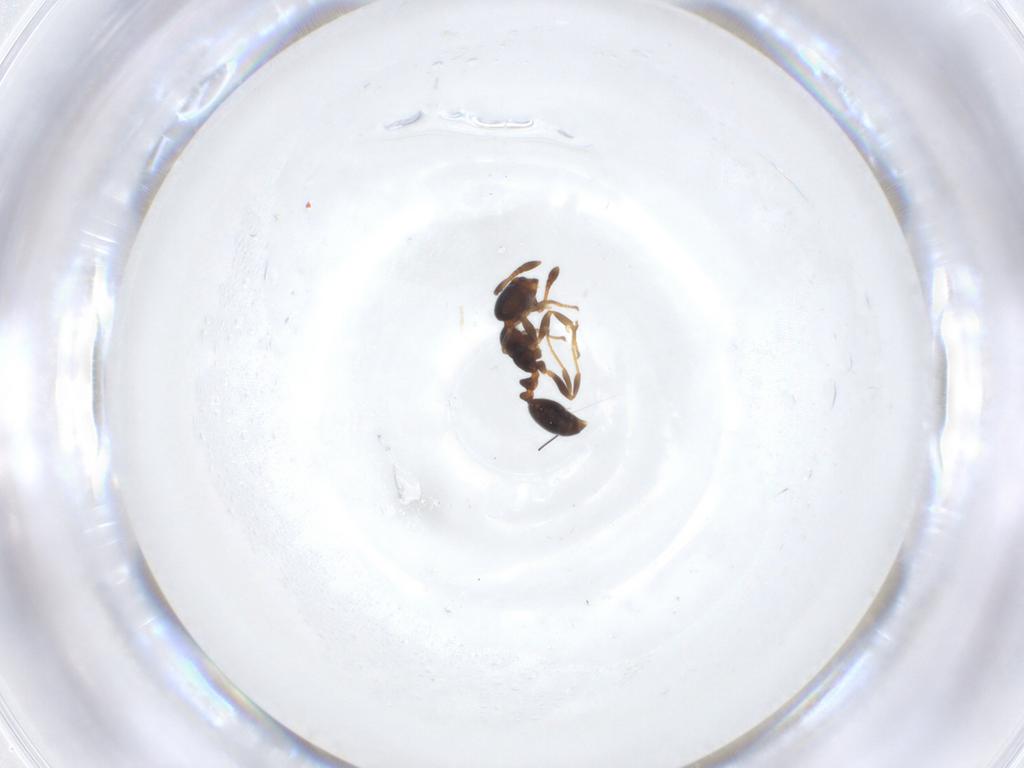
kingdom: Animalia
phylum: Arthropoda
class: Insecta
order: Hymenoptera
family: Formicidae
